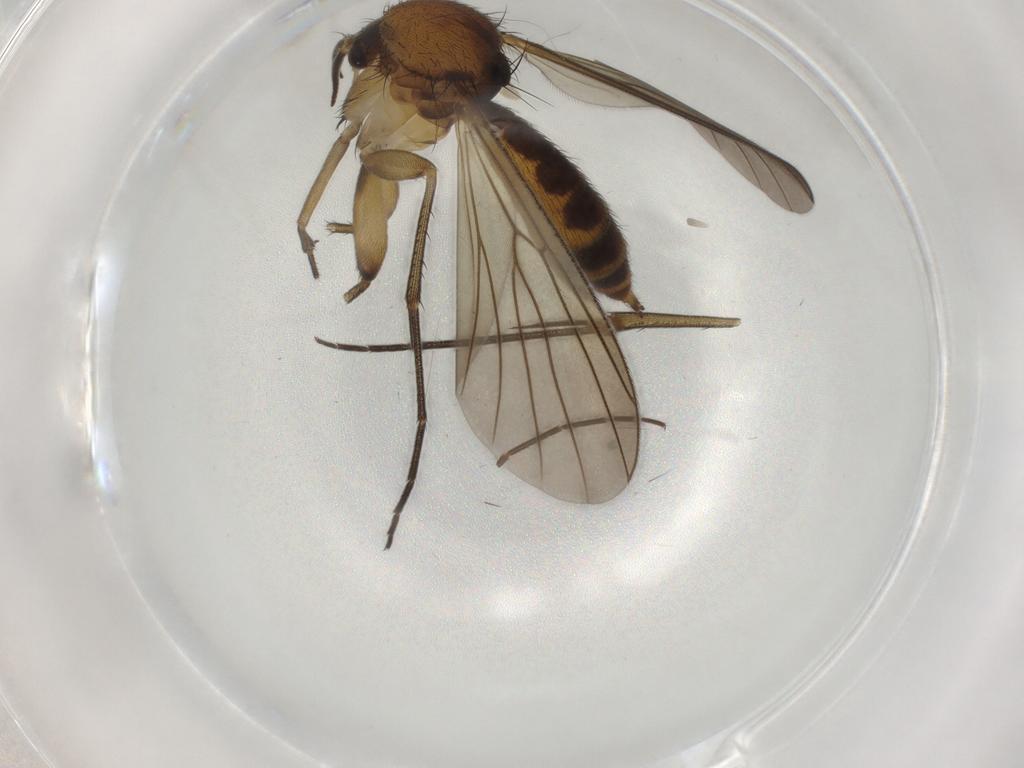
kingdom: Animalia
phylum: Arthropoda
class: Insecta
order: Diptera
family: Mycetophilidae
